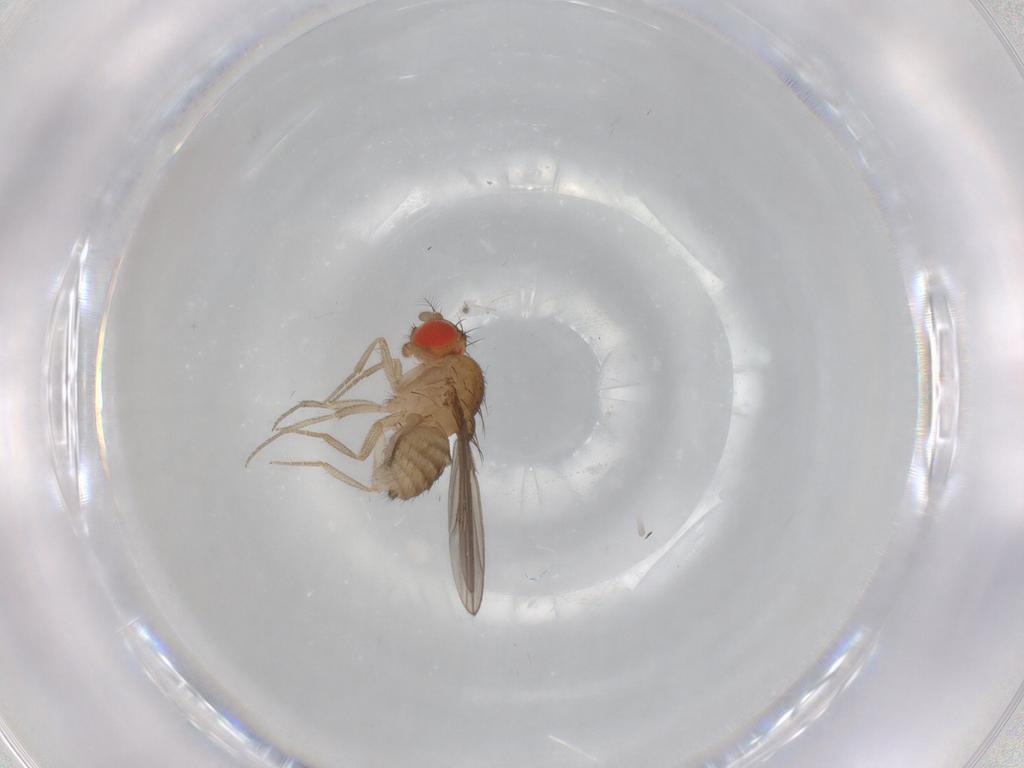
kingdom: Animalia
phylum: Arthropoda
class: Insecta
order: Diptera
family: Drosophilidae
